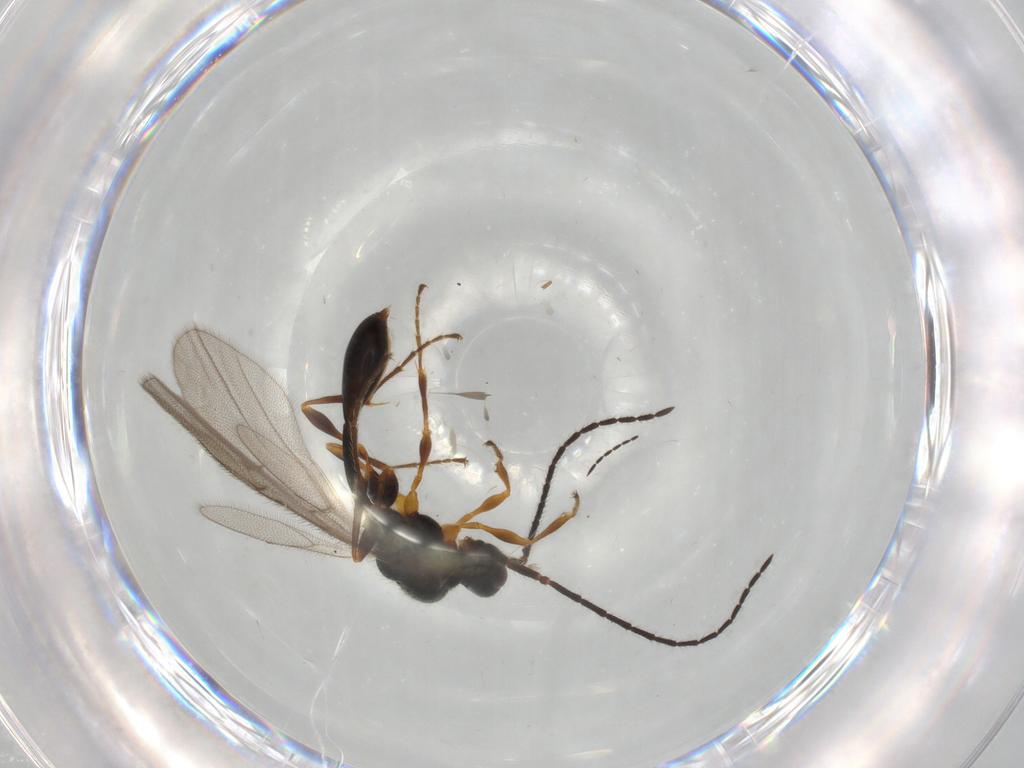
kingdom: Animalia
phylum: Arthropoda
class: Insecta
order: Hymenoptera
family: Diapriidae
